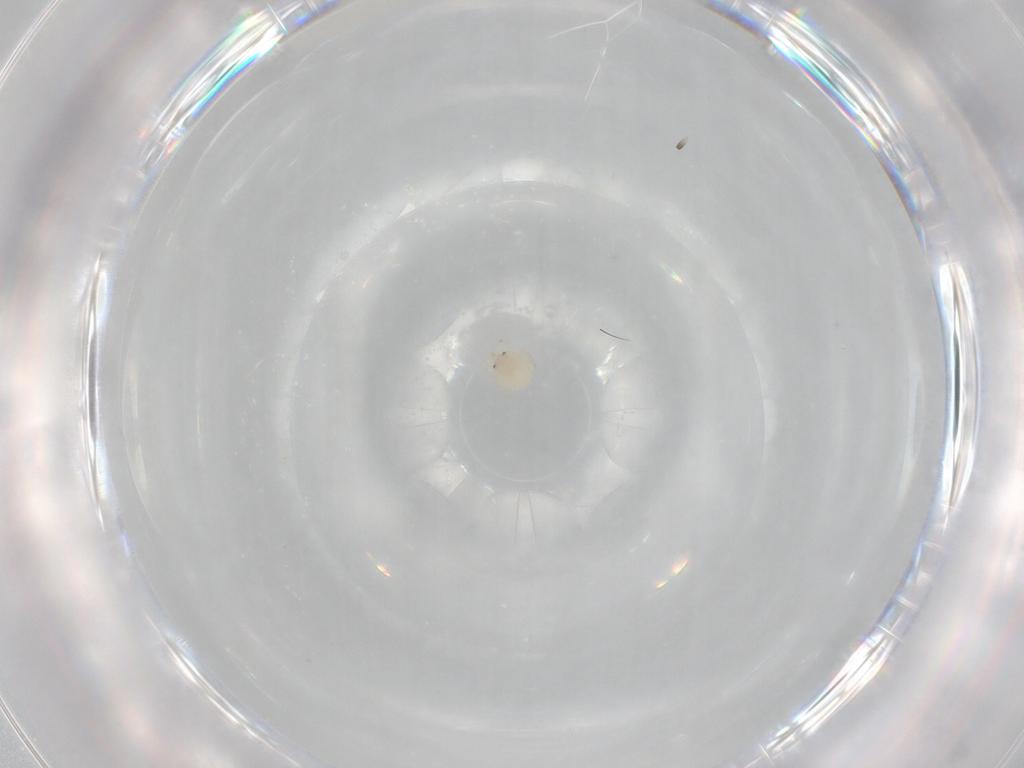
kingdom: Animalia
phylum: Arthropoda
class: Arachnida
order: Trombidiformes
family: Lebertiidae
